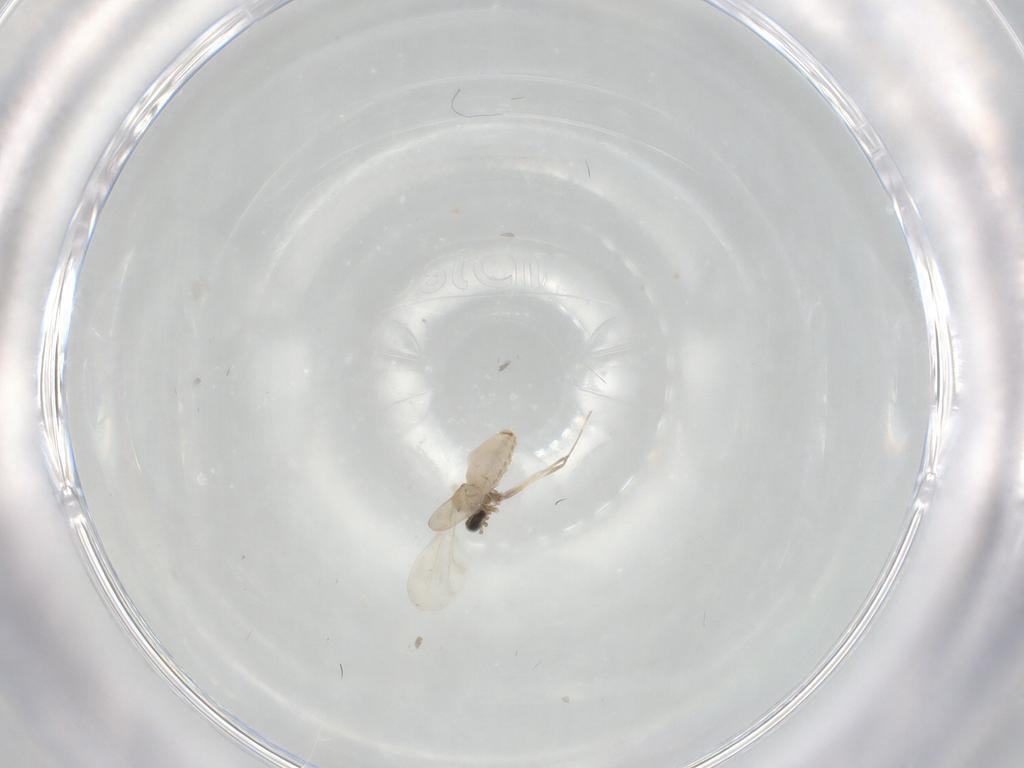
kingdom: Animalia
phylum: Arthropoda
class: Insecta
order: Diptera
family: Cecidomyiidae
